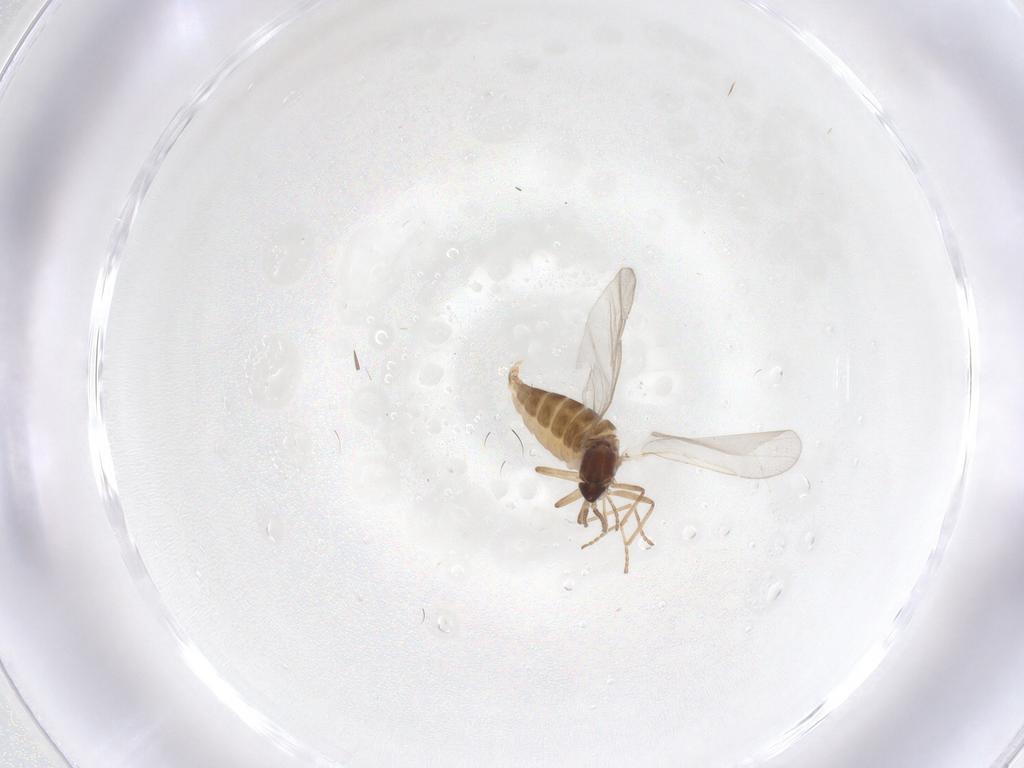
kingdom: Animalia
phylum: Arthropoda
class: Insecta
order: Diptera
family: Cecidomyiidae
